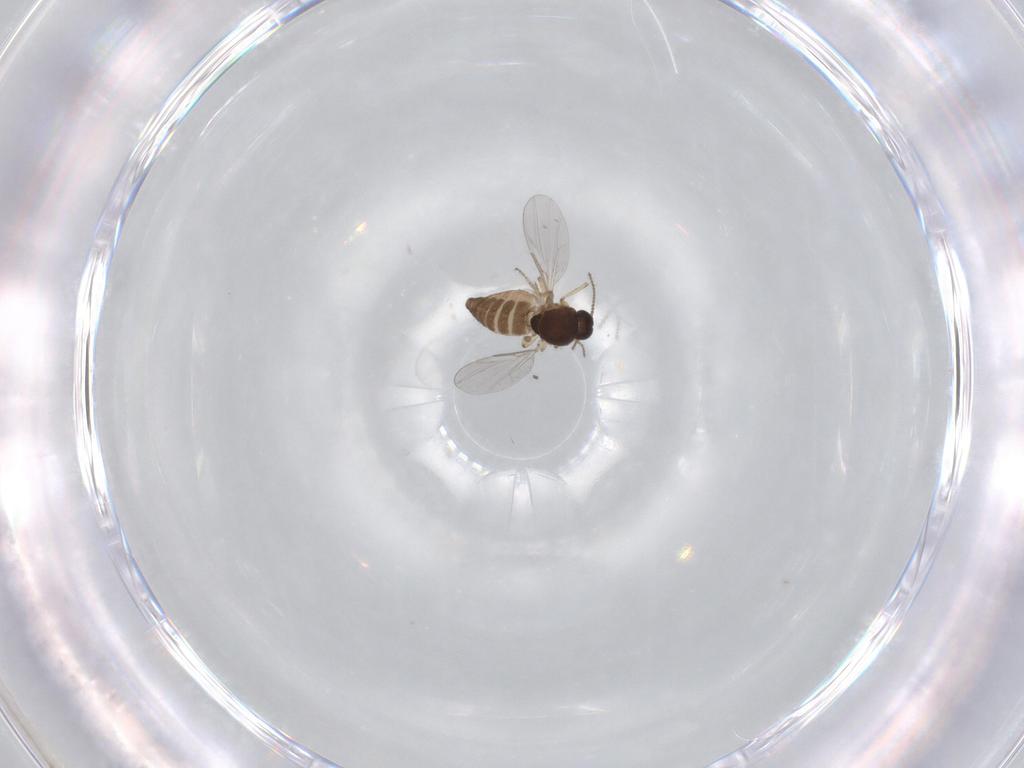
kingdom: Animalia
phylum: Arthropoda
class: Insecta
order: Diptera
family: Ceratopogonidae
